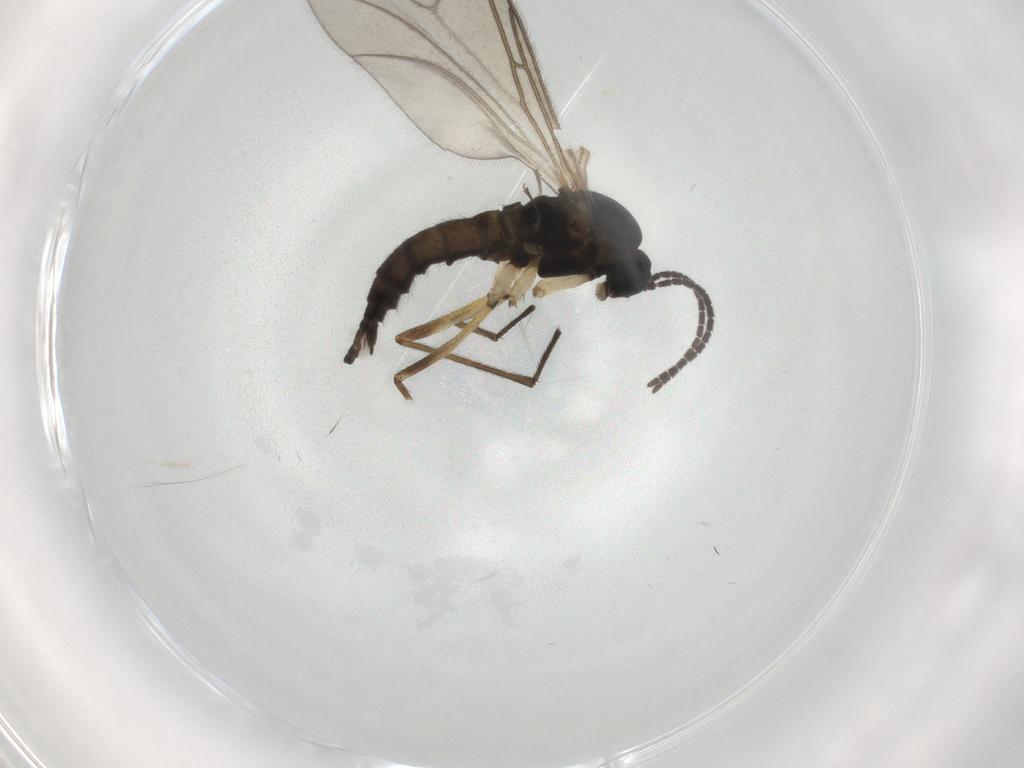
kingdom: Animalia
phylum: Arthropoda
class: Insecta
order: Diptera
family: Sciaridae
